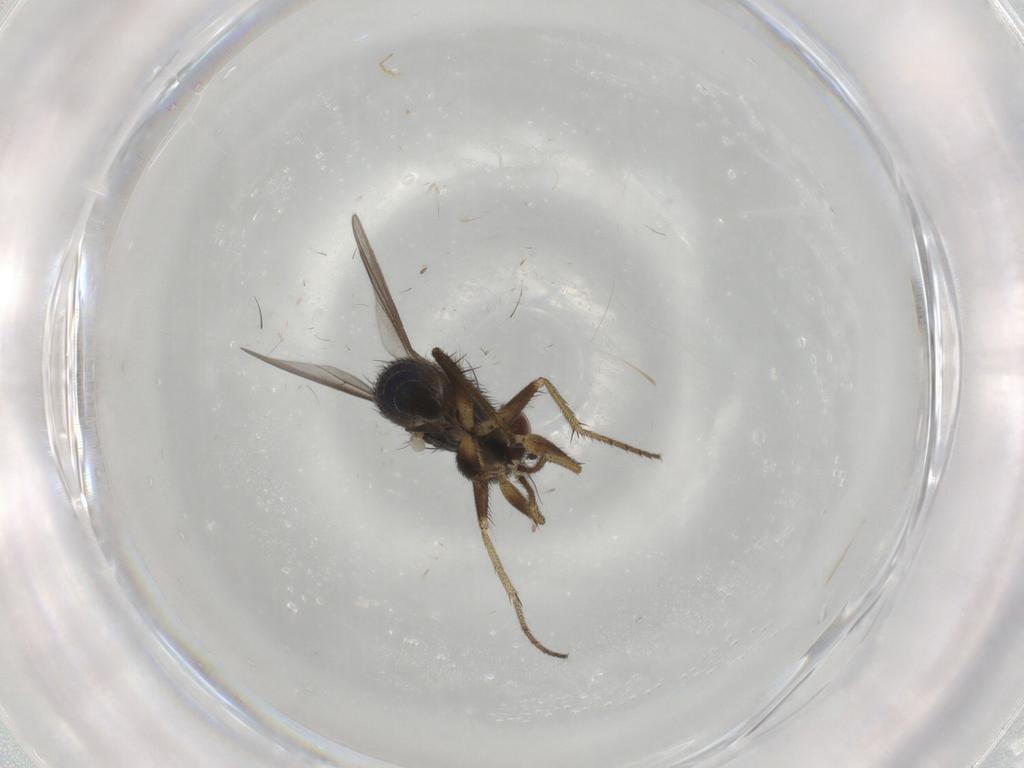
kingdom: Animalia
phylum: Arthropoda
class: Insecta
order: Diptera
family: Dolichopodidae
